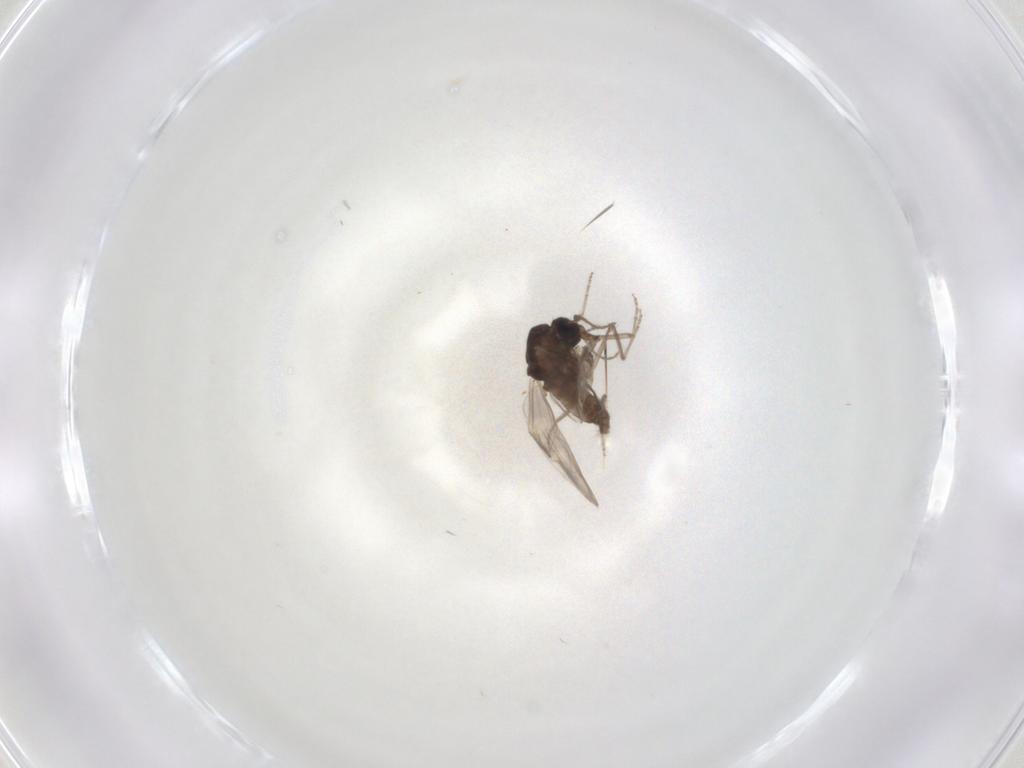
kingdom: Animalia
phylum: Arthropoda
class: Insecta
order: Diptera
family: Ceratopogonidae
